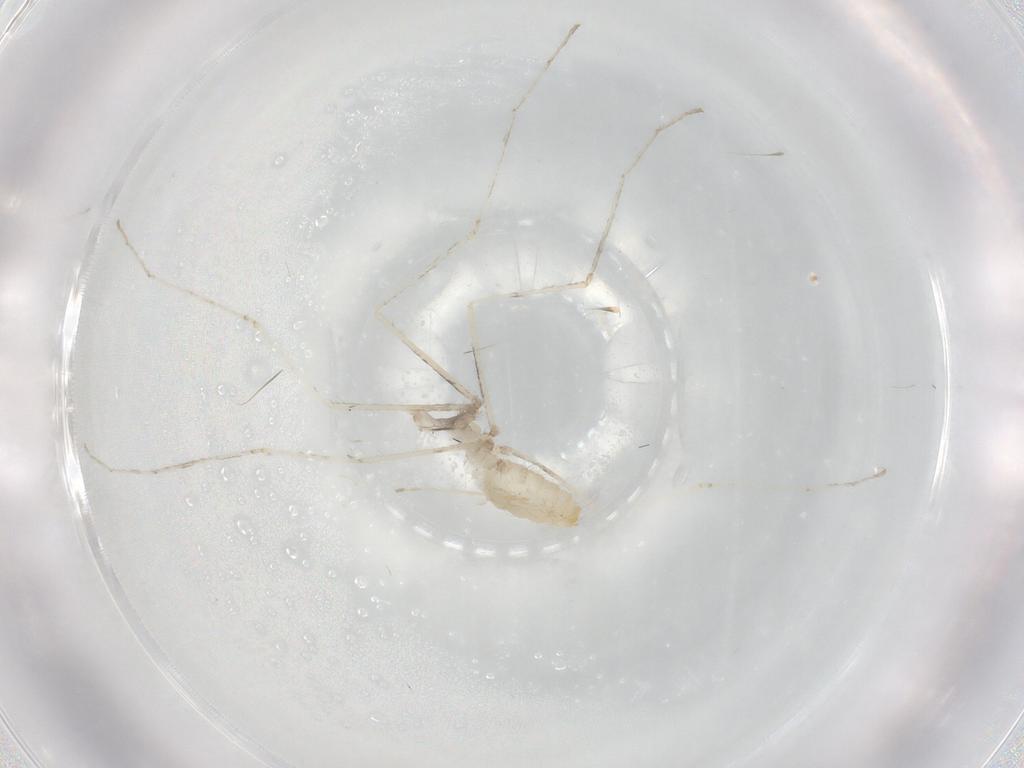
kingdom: Animalia
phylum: Arthropoda
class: Insecta
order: Diptera
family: Cecidomyiidae
